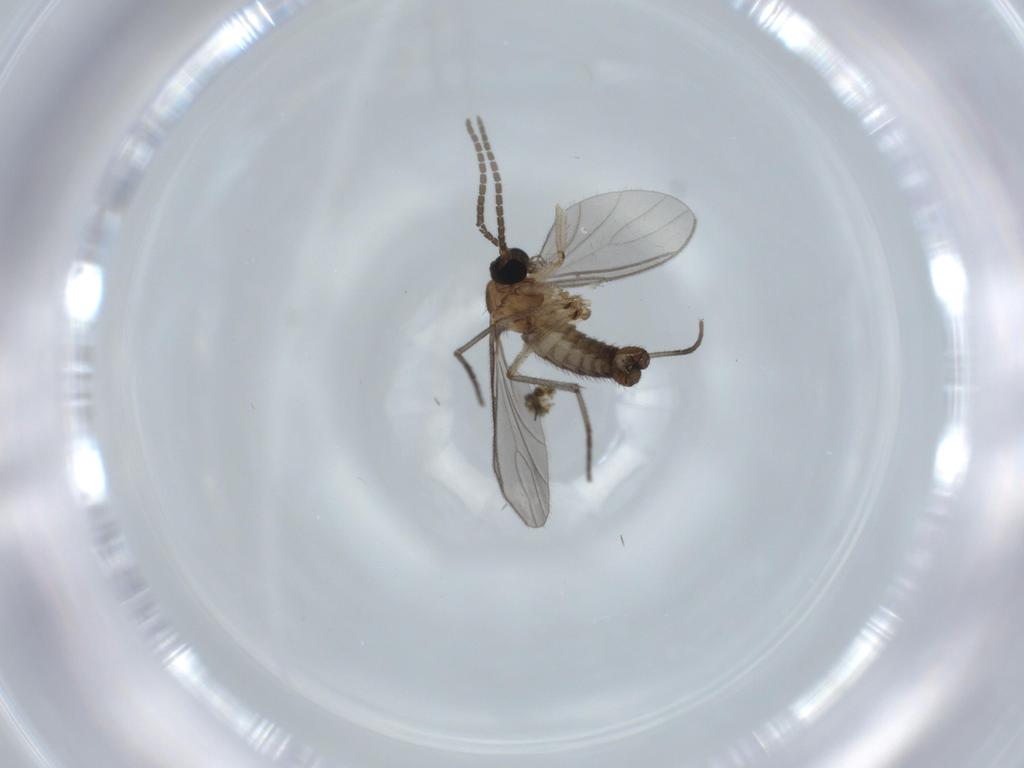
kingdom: Animalia
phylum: Arthropoda
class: Insecta
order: Diptera
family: Sciaridae
